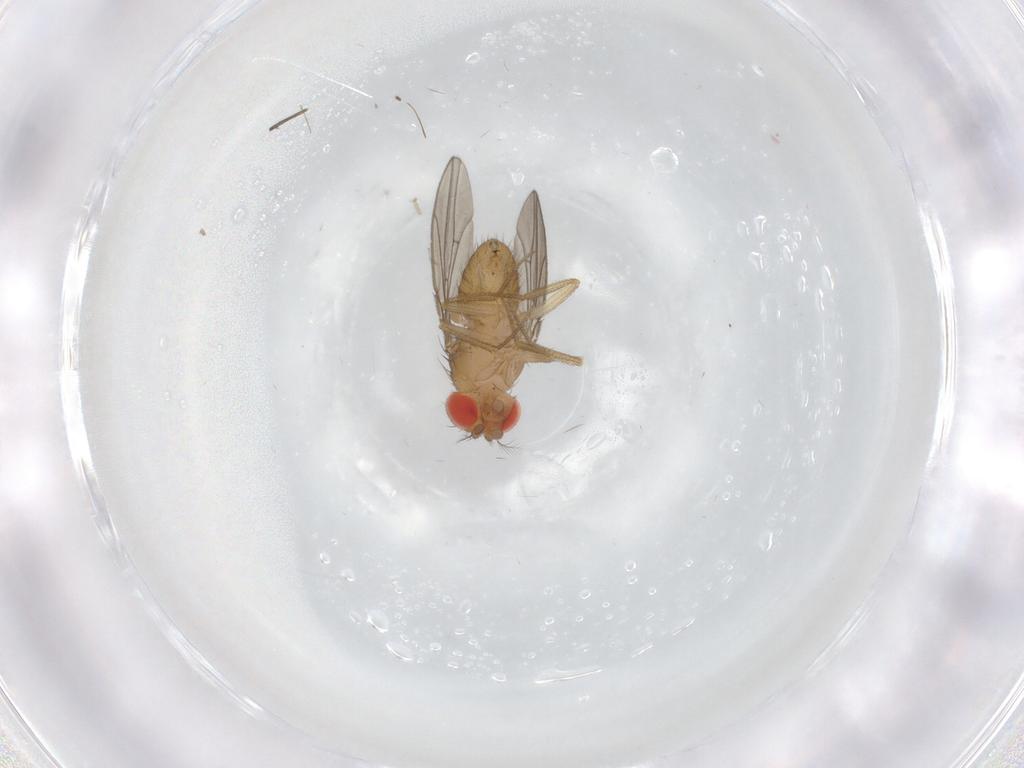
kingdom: Animalia
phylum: Arthropoda
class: Insecta
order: Diptera
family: Drosophilidae
